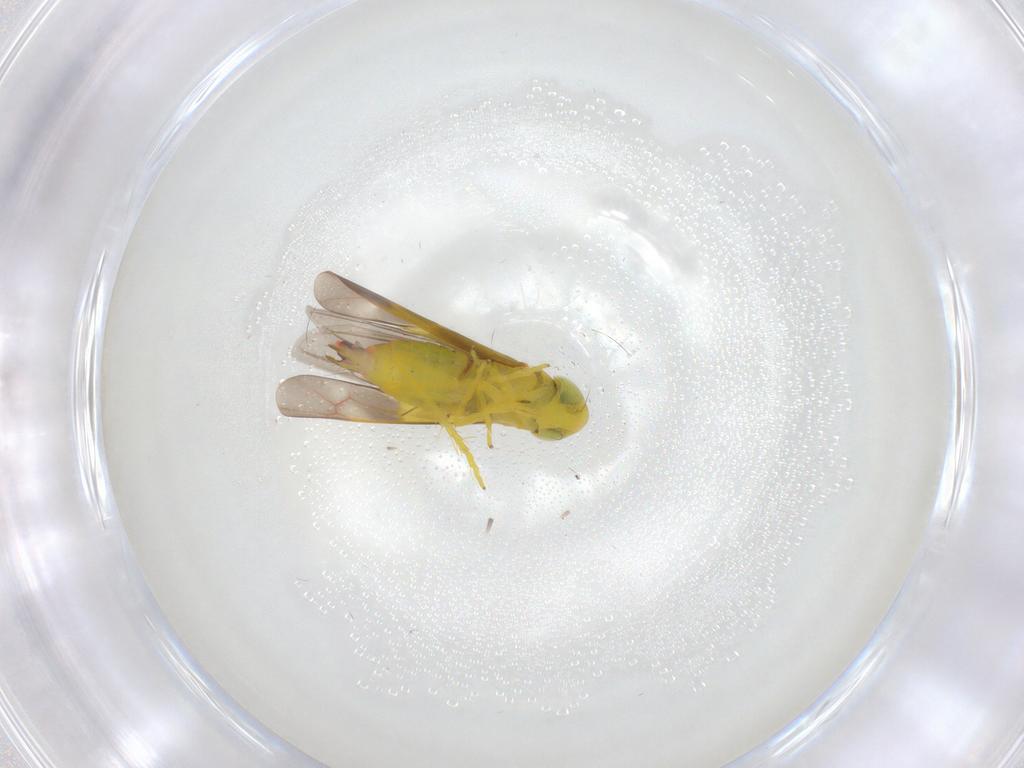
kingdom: Animalia
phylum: Arthropoda
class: Insecta
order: Hemiptera
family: Cicadellidae
